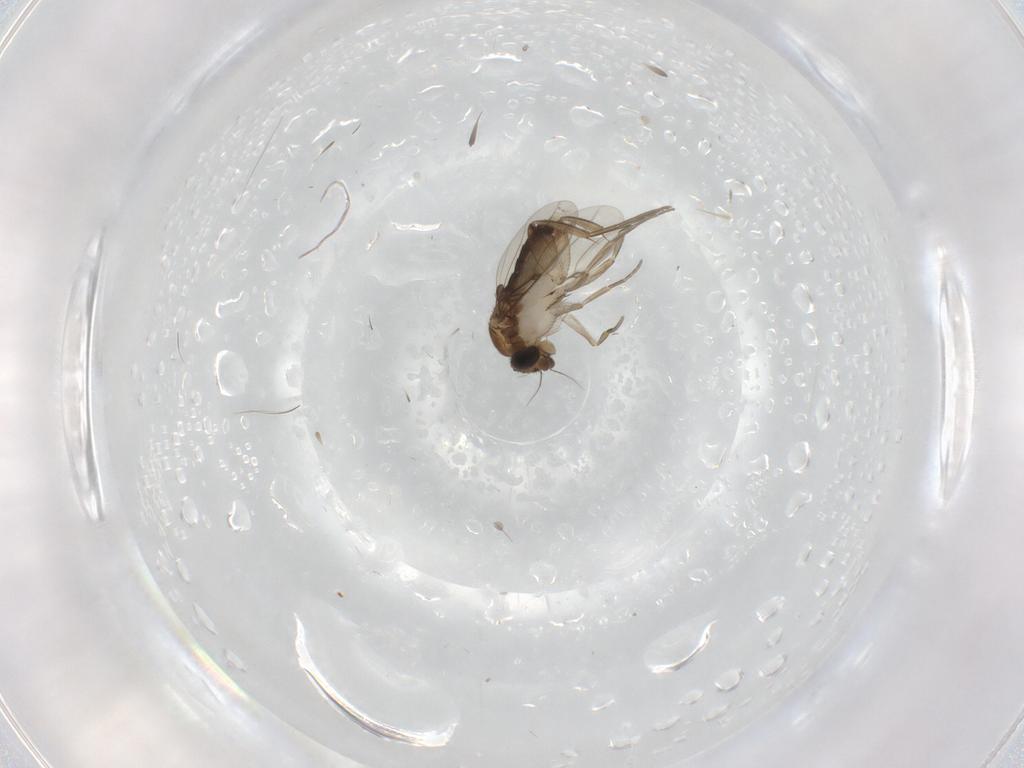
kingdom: Animalia
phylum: Arthropoda
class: Insecta
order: Diptera
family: Phoridae
